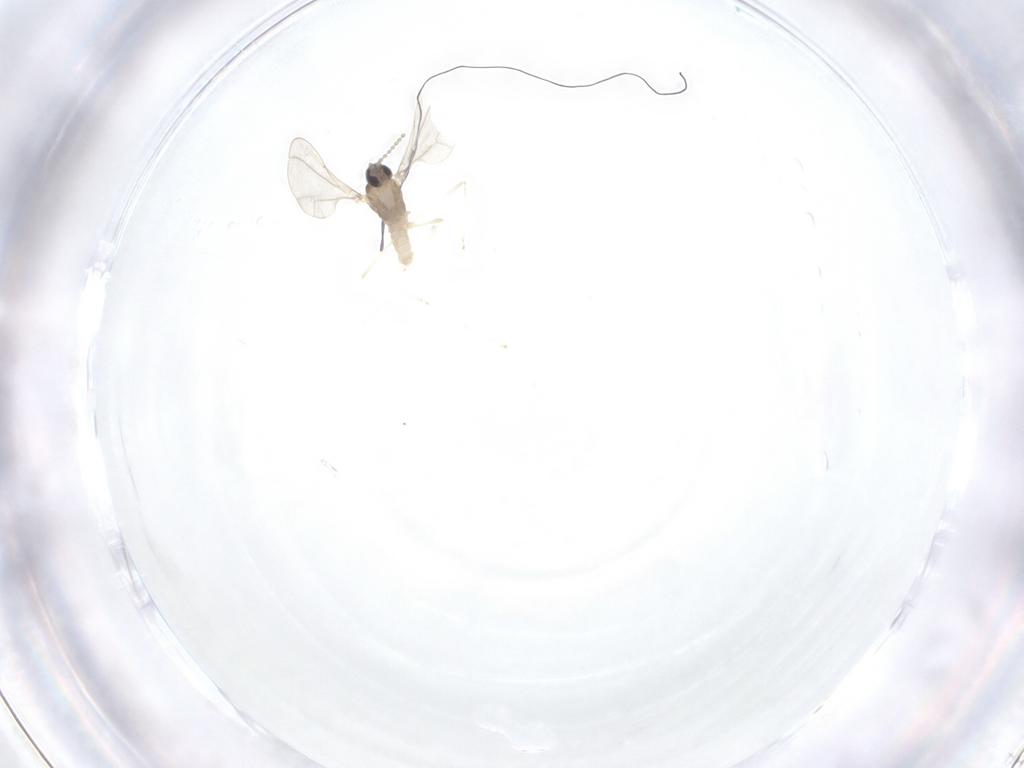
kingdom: Animalia
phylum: Arthropoda
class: Insecta
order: Diptera
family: Cecidomyiidae
